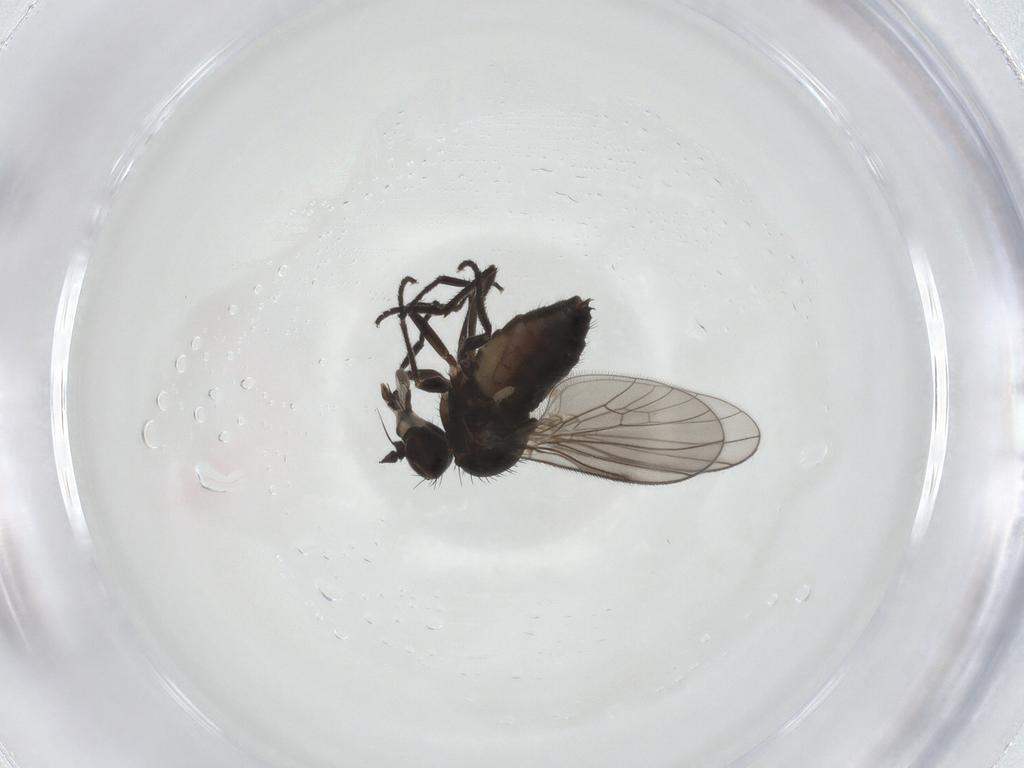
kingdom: Animalia
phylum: Arthropoda
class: Insecta
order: Diptera
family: Dolichopodidae
